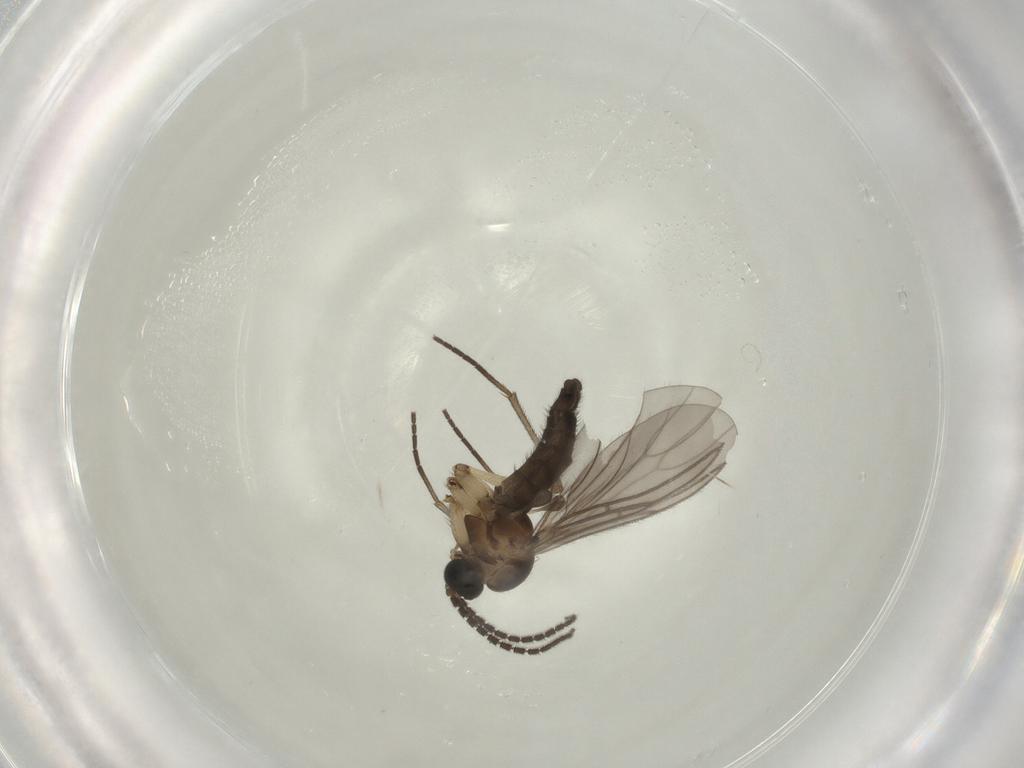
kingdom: Animalia
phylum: Arthropoda
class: Insecta
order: Diptera
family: Sciaridae
